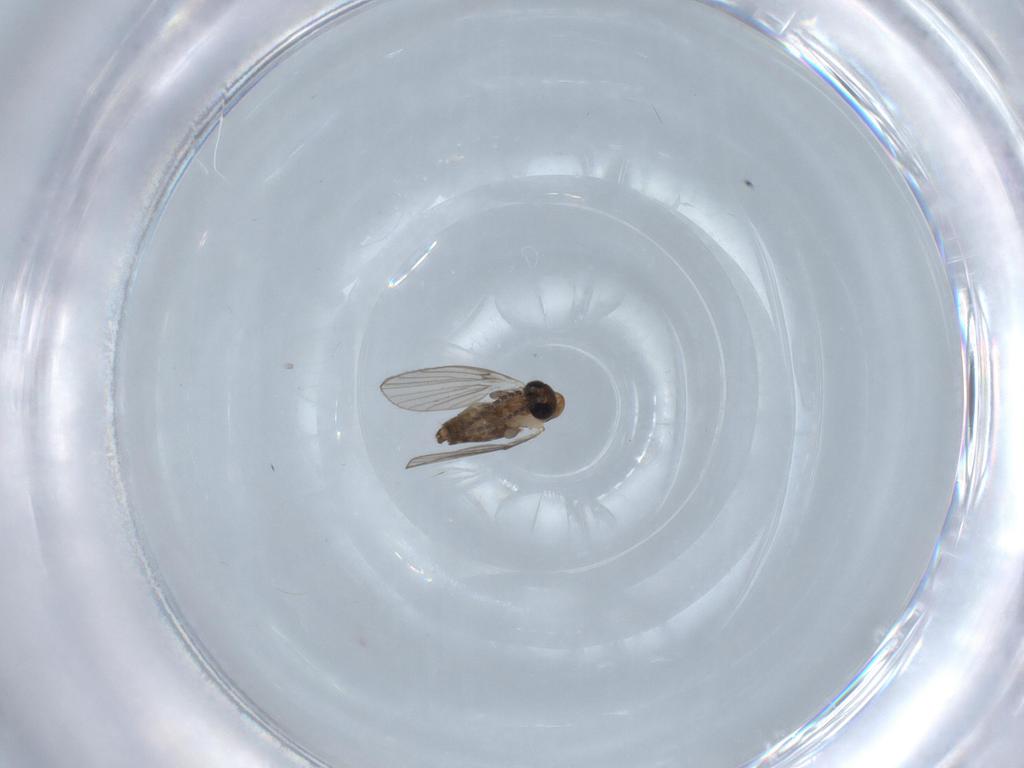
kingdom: Animalia
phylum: Arthropoda
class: Insecta
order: Diptera
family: Psychodidae
